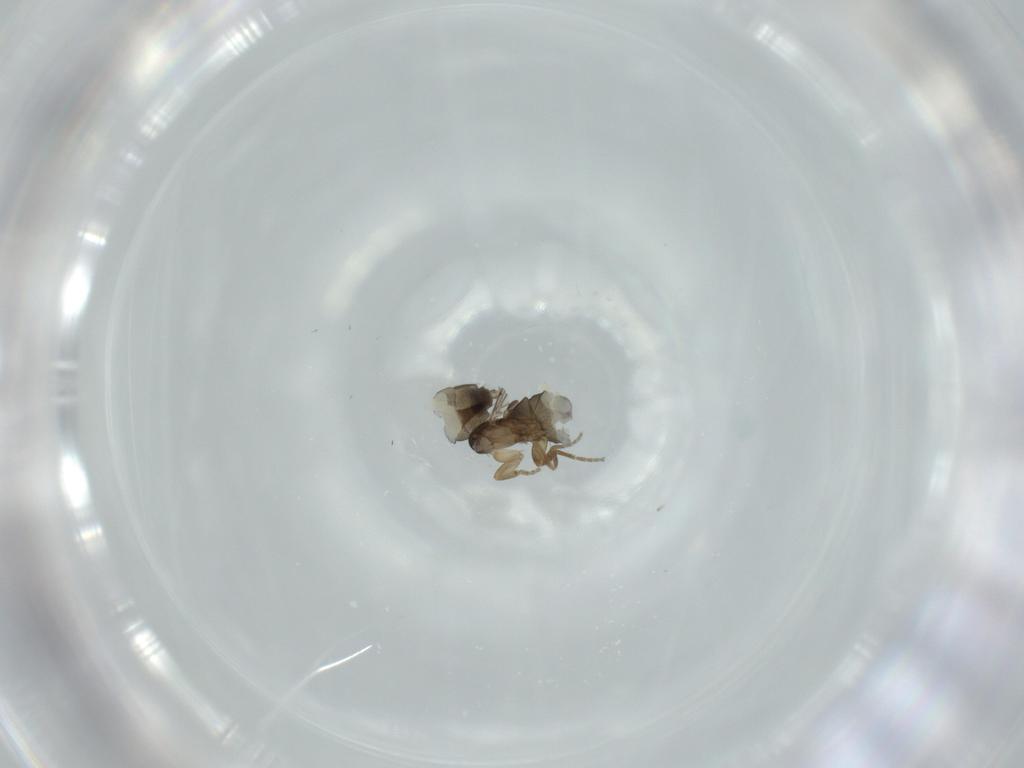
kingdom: Animalia
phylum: Arthropoda
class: Insecta
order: Diptera
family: Phoridae
